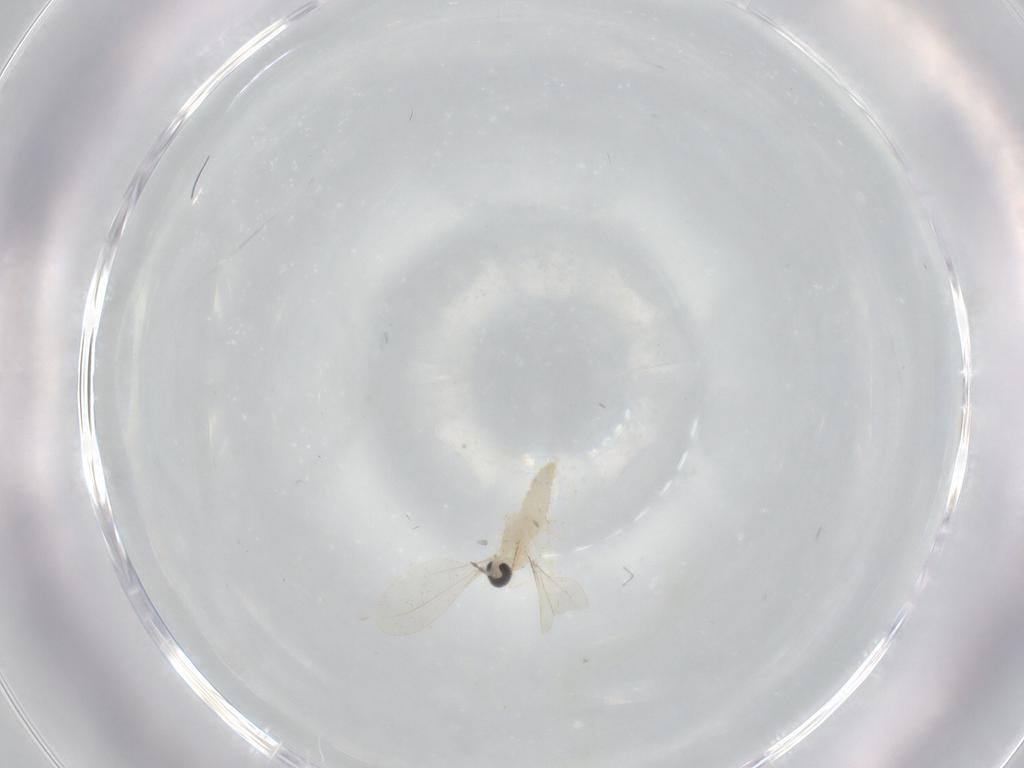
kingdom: Animalia
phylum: Arthropoda
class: Insecta
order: Diptera
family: Cecidomyiidae
